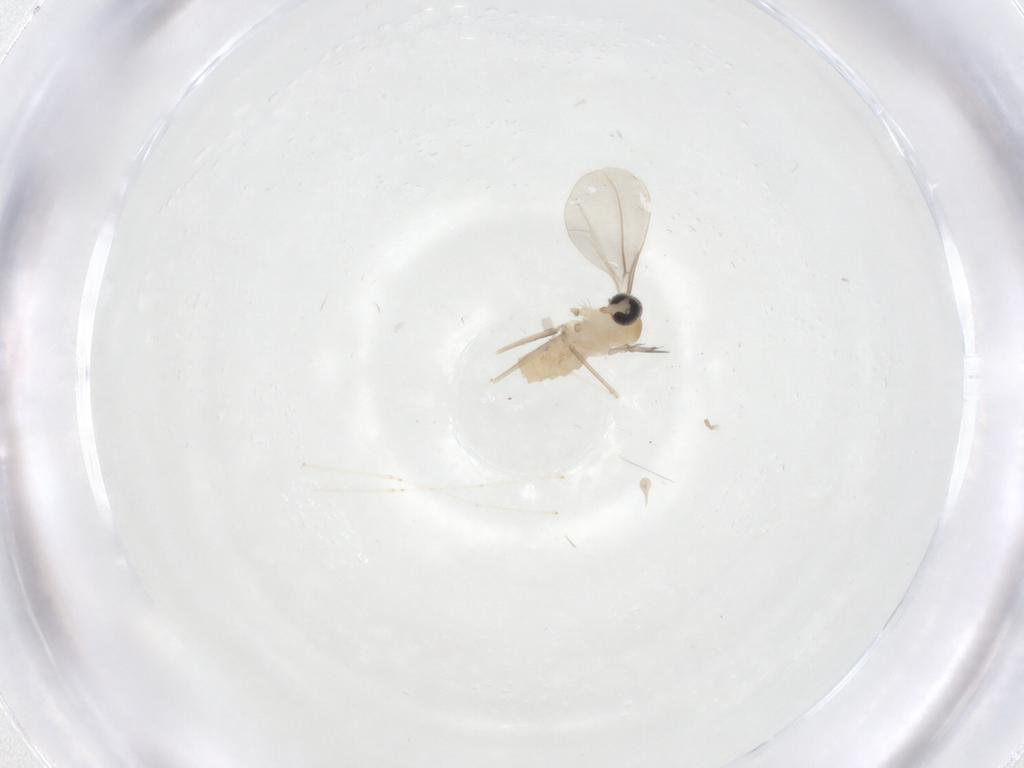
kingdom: Animalia
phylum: Arthropoda
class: Insecta
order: Diptera
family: Cecidomyiidae
